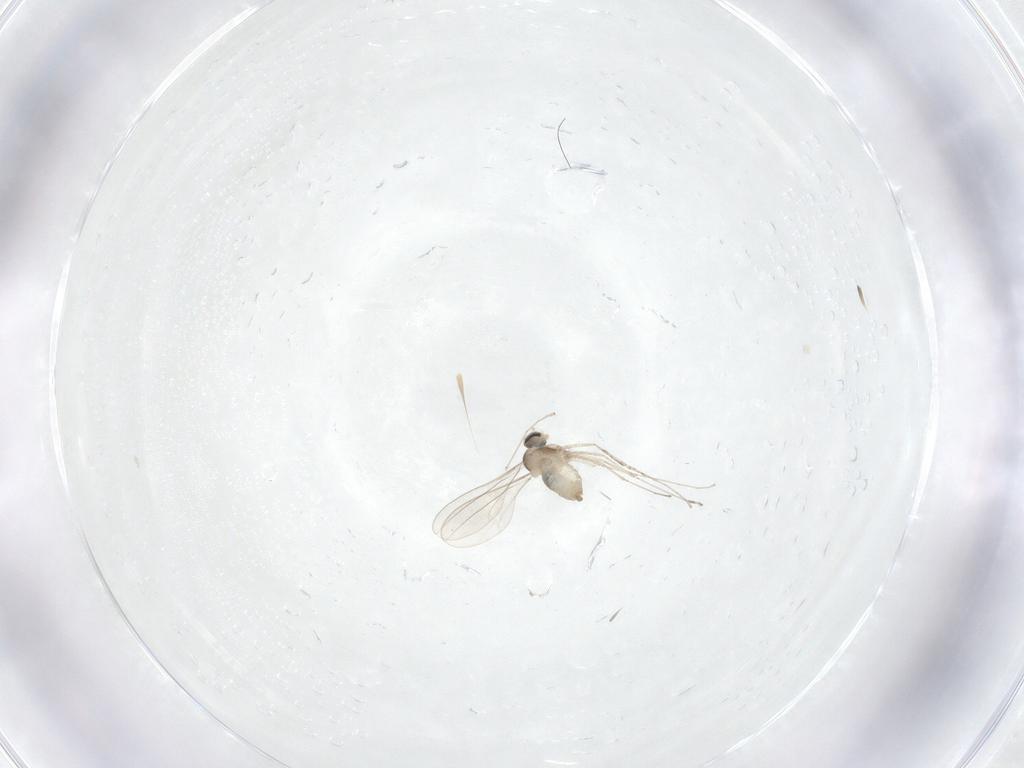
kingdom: Animalia
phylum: Arthropoda
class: Insecta
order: Diptera
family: Cecidomyiidae
